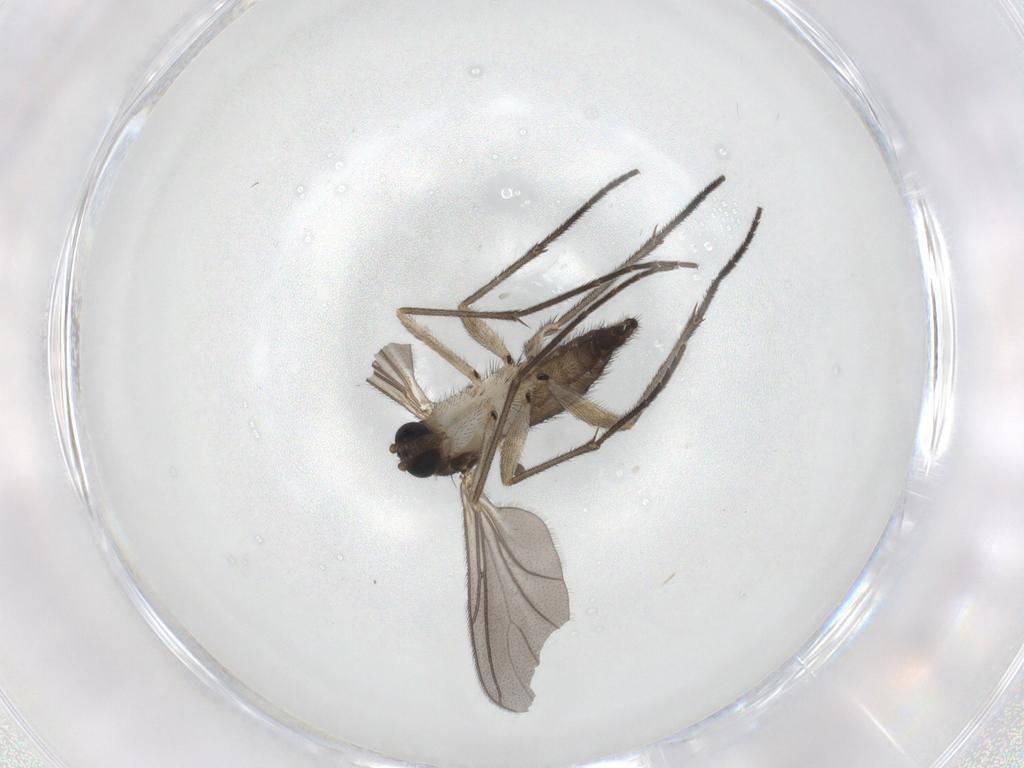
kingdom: Animalia
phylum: Arthropoda
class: Insecta
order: Diptera
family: Sciaridae
